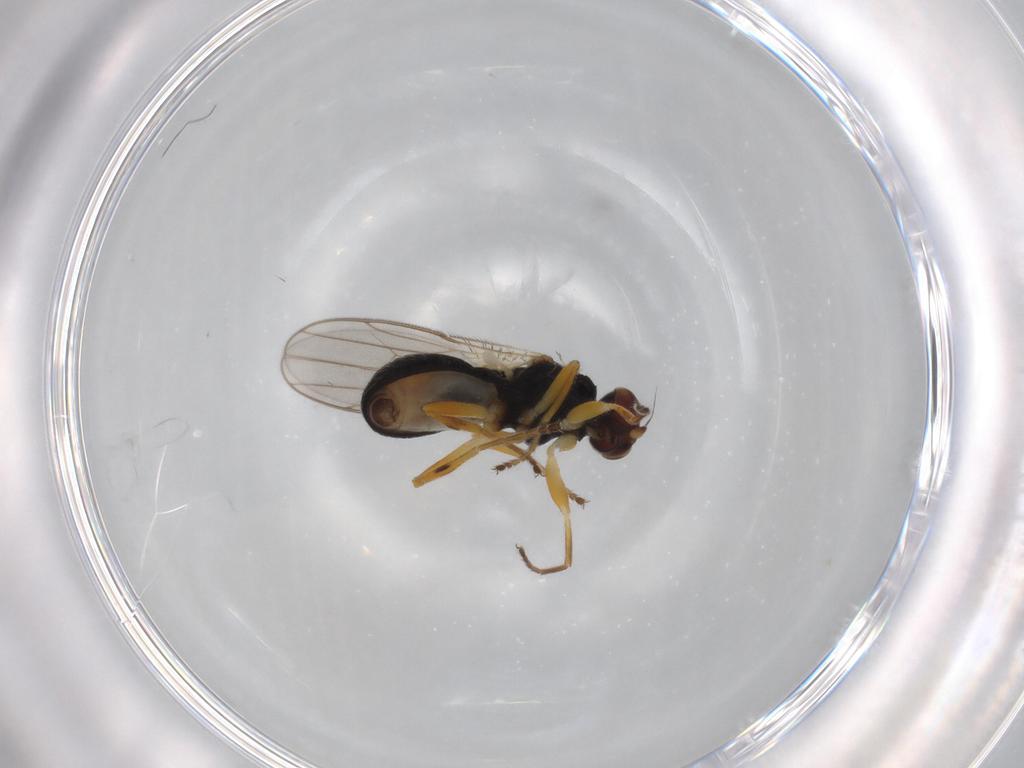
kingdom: Animalia
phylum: Arthropoda
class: Insecta
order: Diptera
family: Chloropidae
